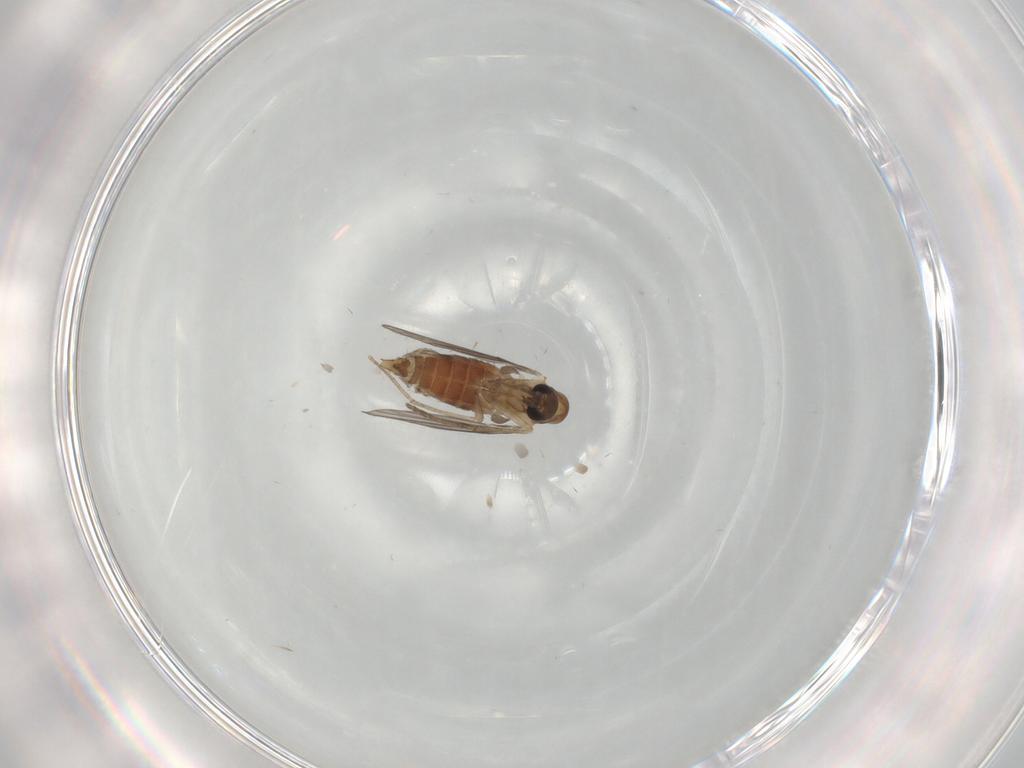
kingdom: Animalia
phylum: Arthropoda
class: Insecta
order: Diptera
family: Cecidomyiidae
